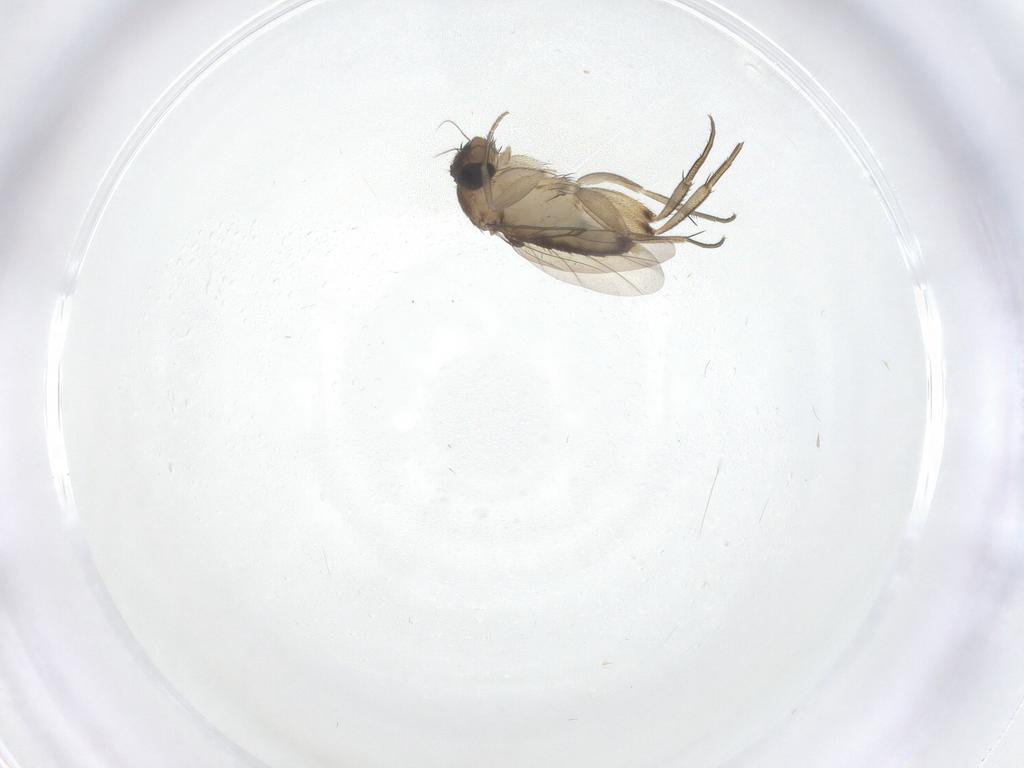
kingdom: Animalia
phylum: Arthropoda
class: Insecta
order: Diptera
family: Phoridae
